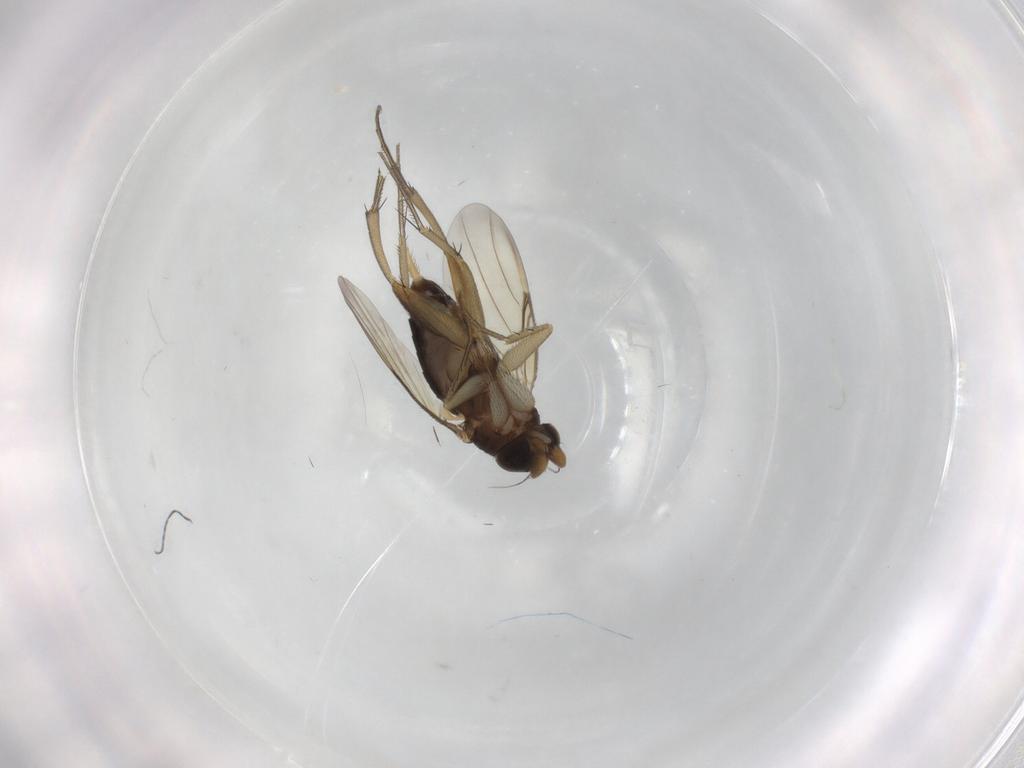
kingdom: Animalia
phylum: Arthropoda
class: Insecta
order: Diptera
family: Phoridae
